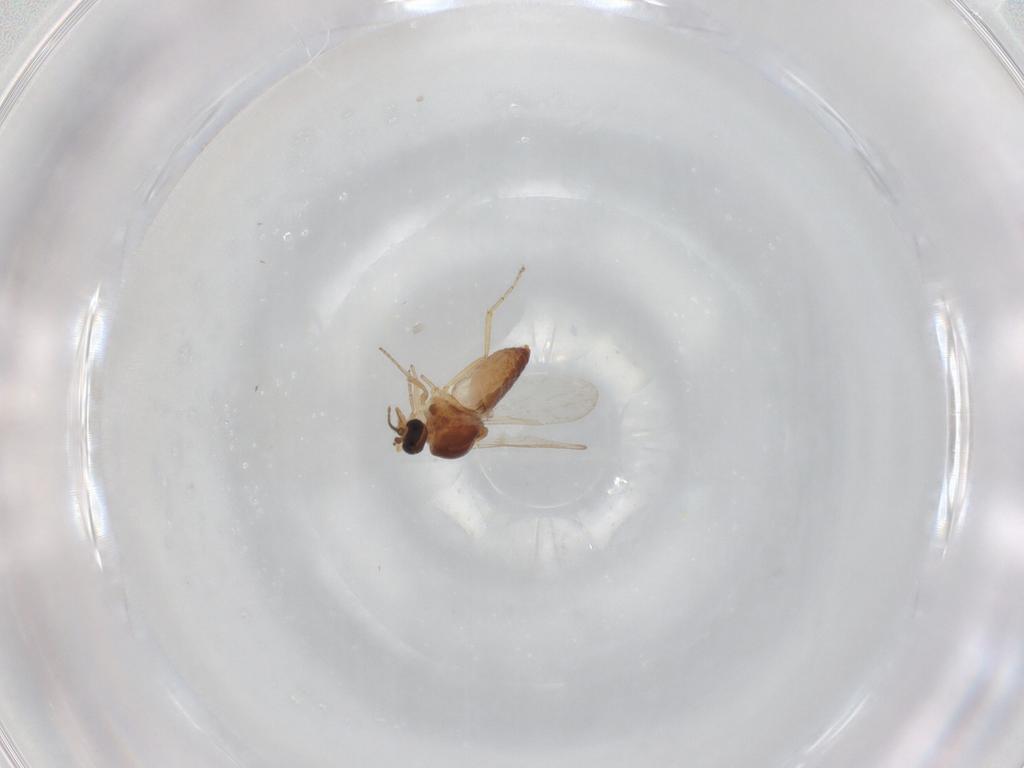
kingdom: Animalia
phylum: Arthropoda
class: Insecta
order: Diptera
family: Ceratopogonidae
